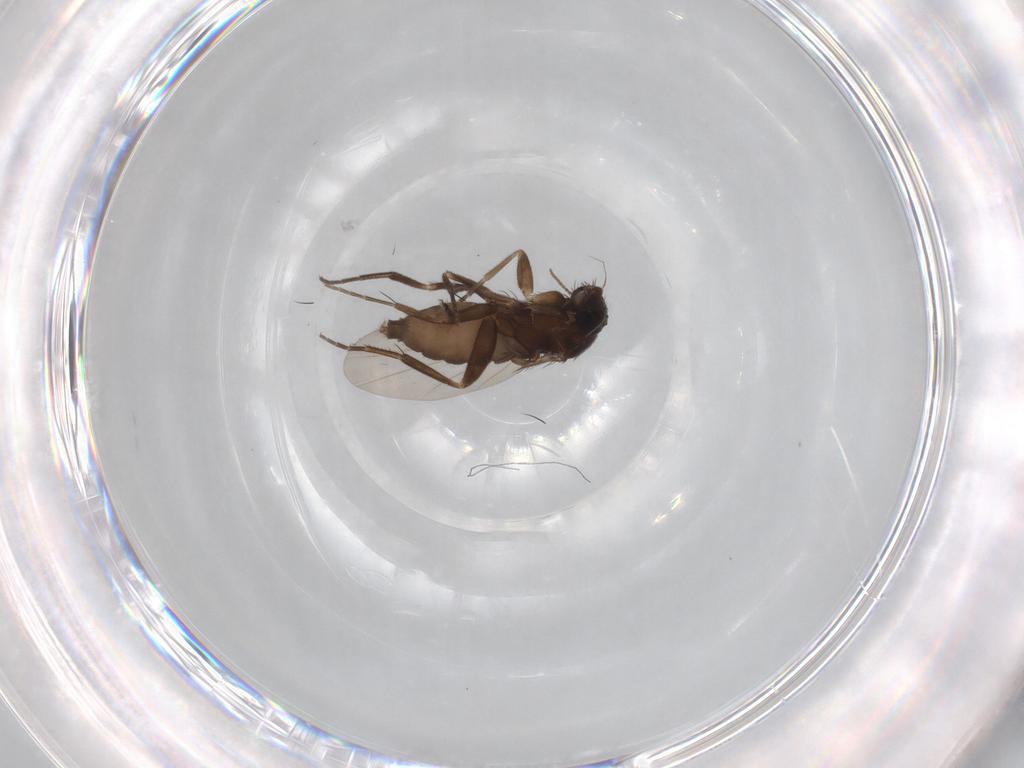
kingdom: Animalia
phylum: Arthropoda
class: Insecta
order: Diptera
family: Phoridae
